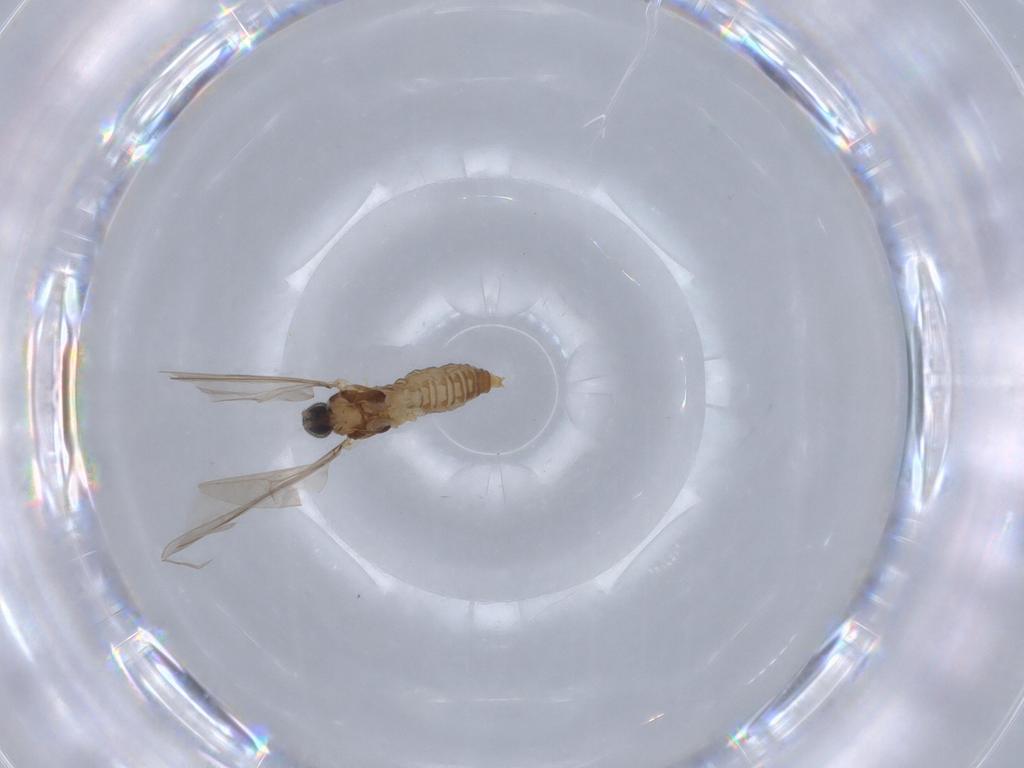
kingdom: Animalia
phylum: Arthropoda
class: Insecta
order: Diptera
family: Cecidomyiidae
